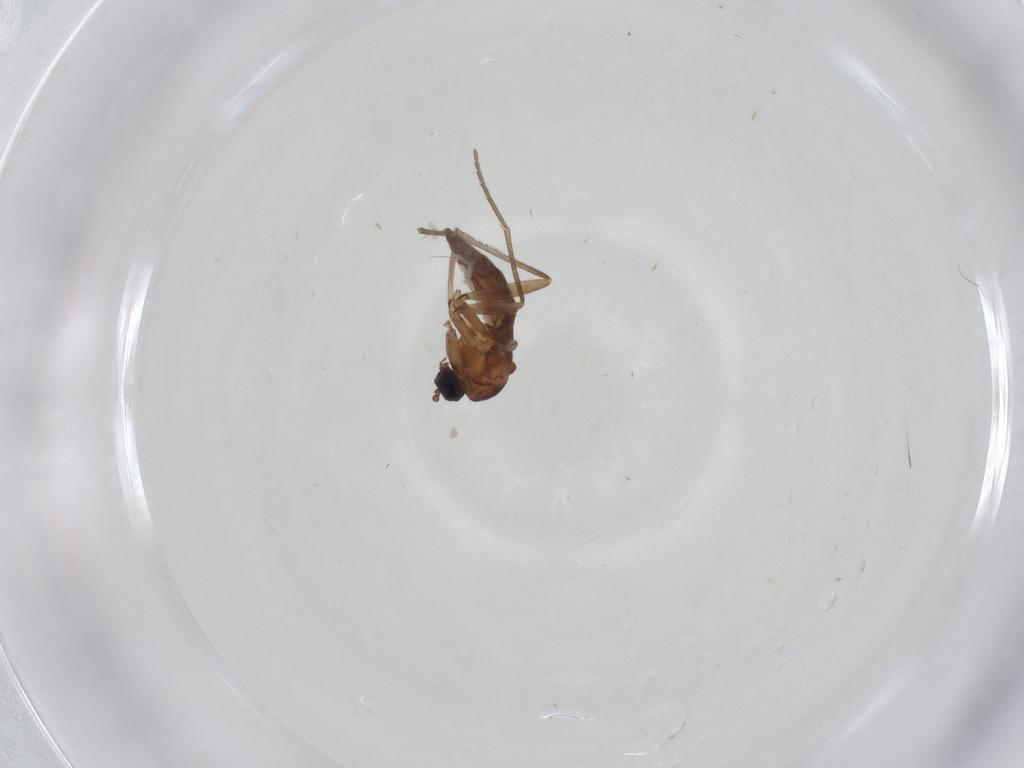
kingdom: Animalia
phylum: Arthropoda
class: Insecta
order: Diptera
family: Sciaridae
